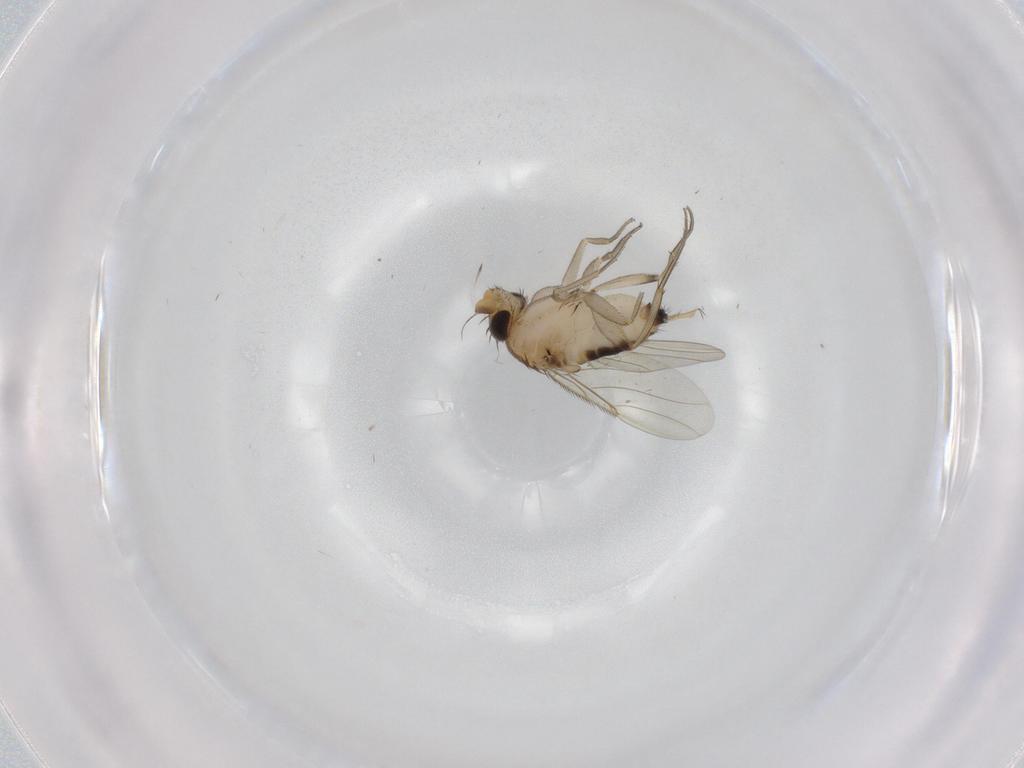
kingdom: Animalia
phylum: Arthropoda
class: Insecta
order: Diptera
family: Phoridae
